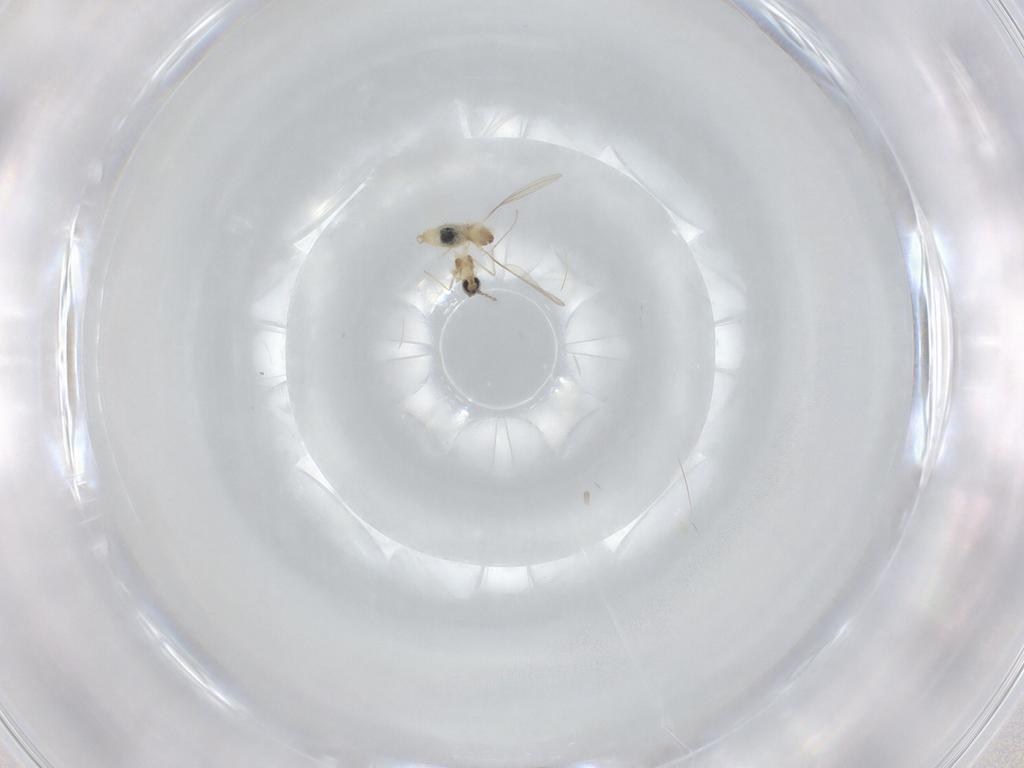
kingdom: Animalia
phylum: Arthropoda
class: Insecta
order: Diptera
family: Cecidomyiidae
